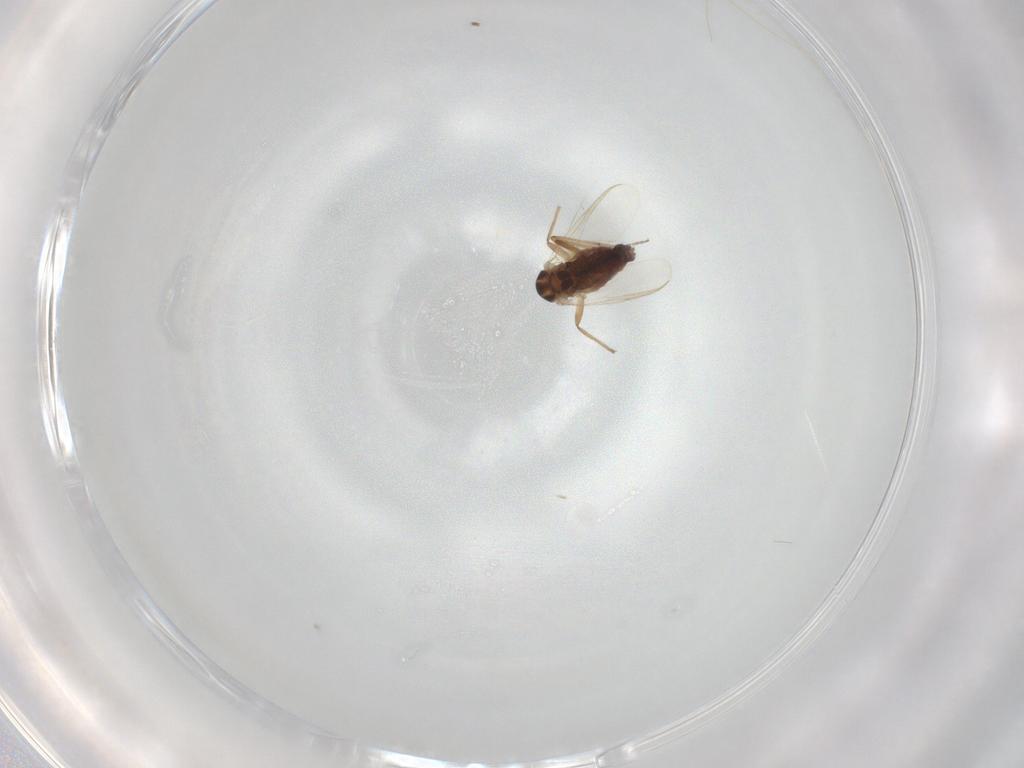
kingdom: Animalia
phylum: Arthropoda
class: Insecta
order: Diptera
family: Chironomidae
